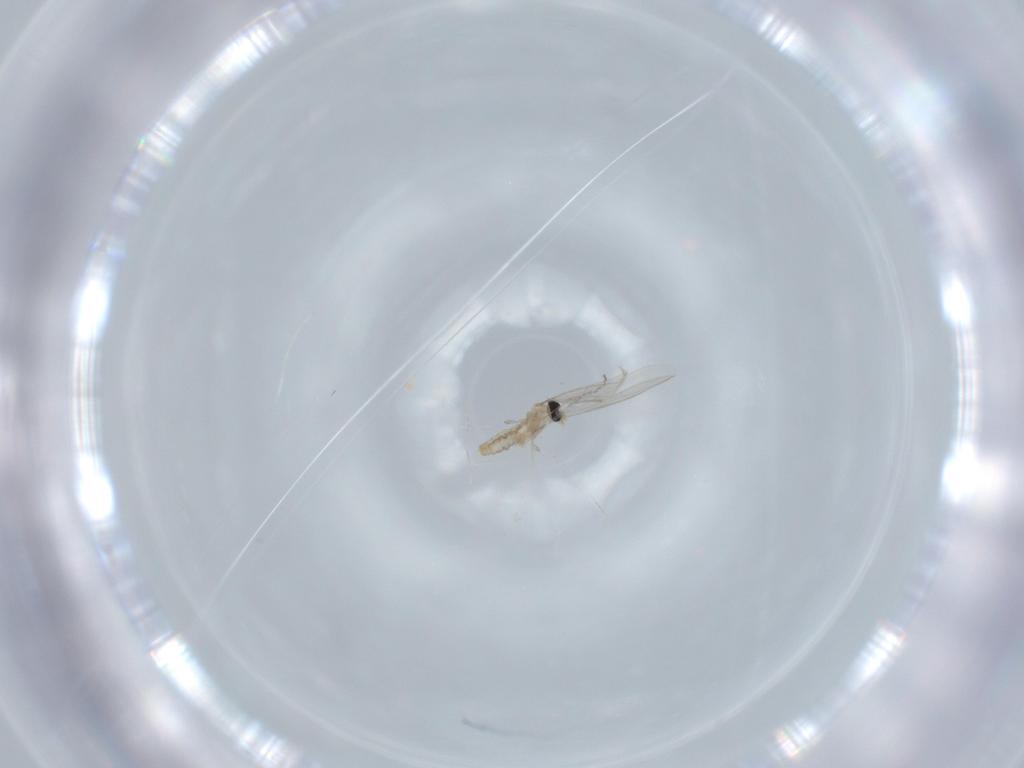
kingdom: Animalia
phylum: Arthropoda
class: Insecta
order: Diptera
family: Cecidomyiidae
